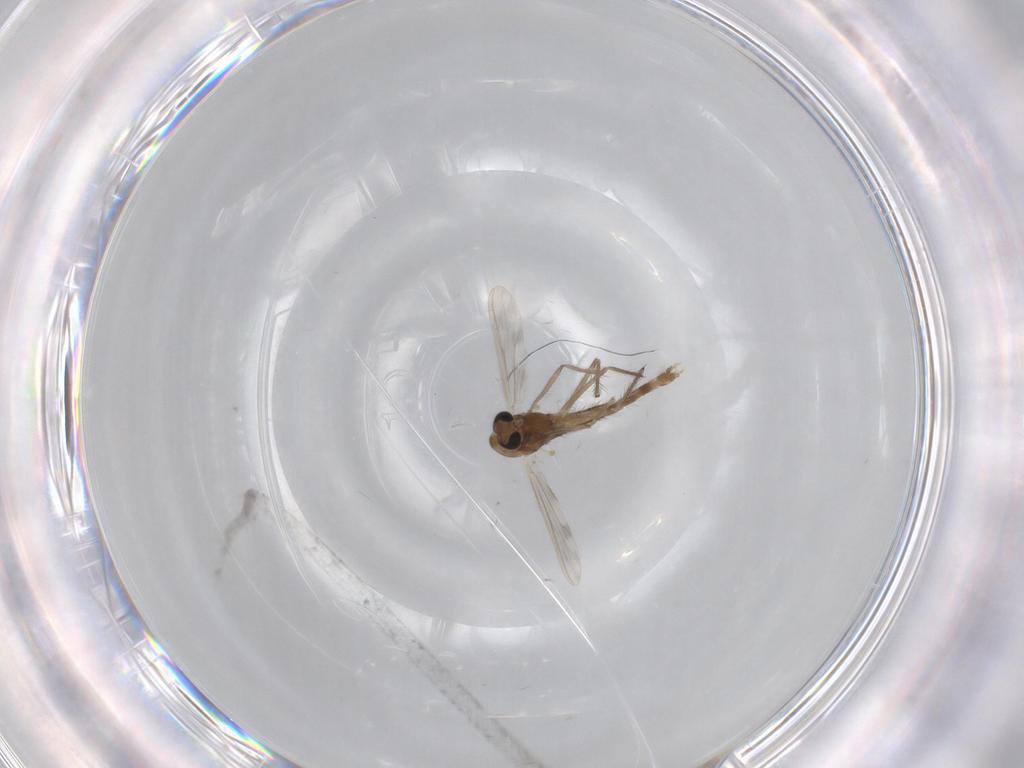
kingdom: Animalia
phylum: Arthropoda
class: Insecta
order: Diptera
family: Chironomidae
